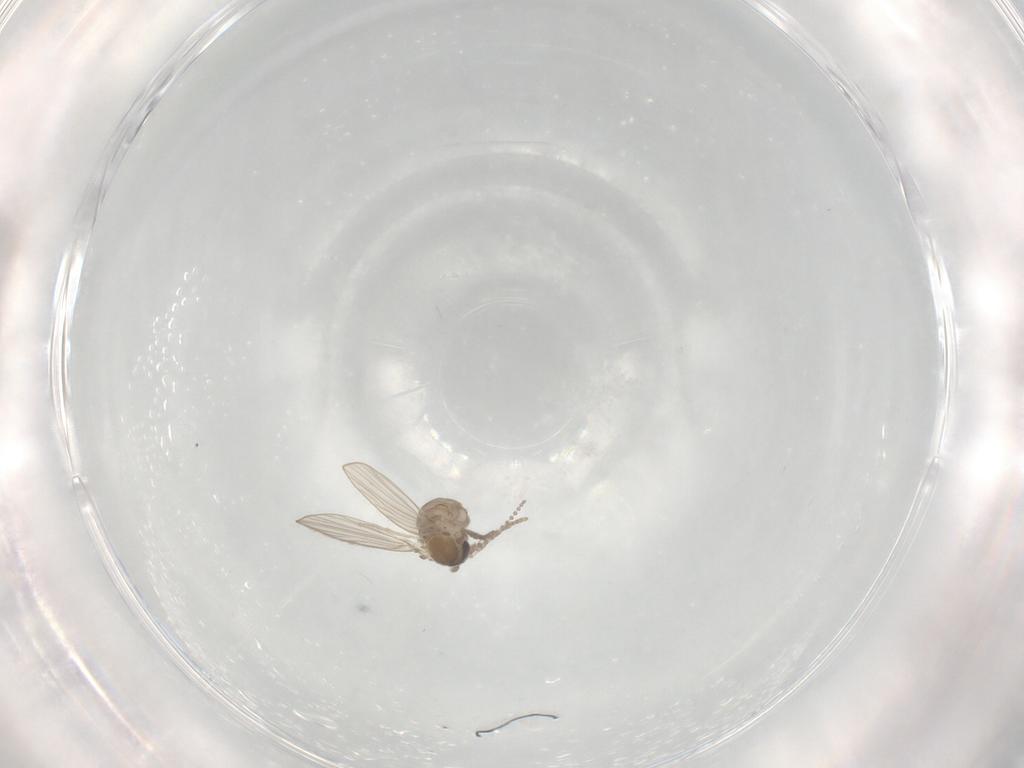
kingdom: Animalia
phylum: Arthropoda
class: Insecta
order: Diptera
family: Psychodidae
